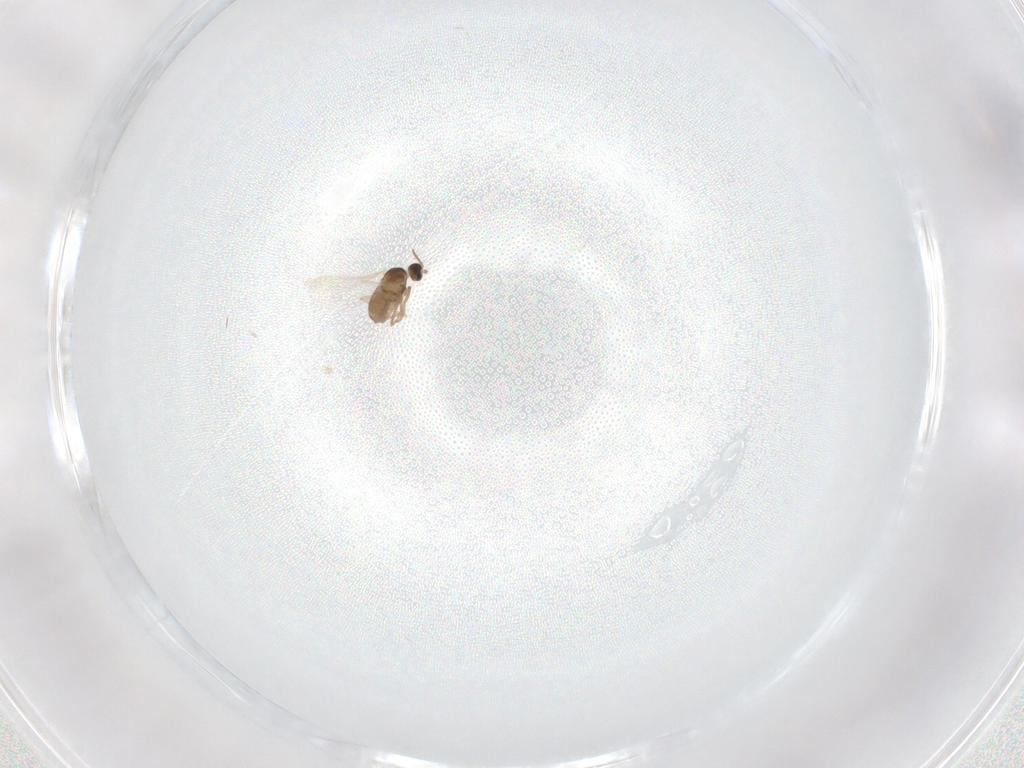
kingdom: Animalia
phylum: Arthropoda
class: Insecta
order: Diptera
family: Cecidomyiidae
